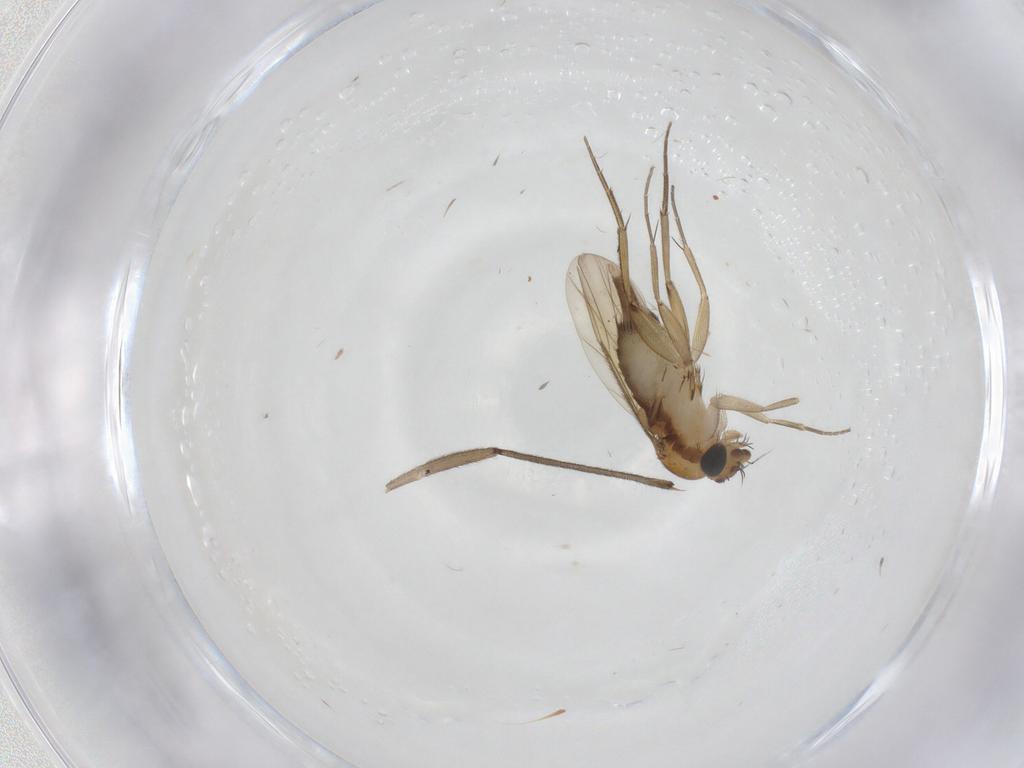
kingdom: Animalia
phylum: Arthropoda
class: Insecta
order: Diptera
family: Phoridae
